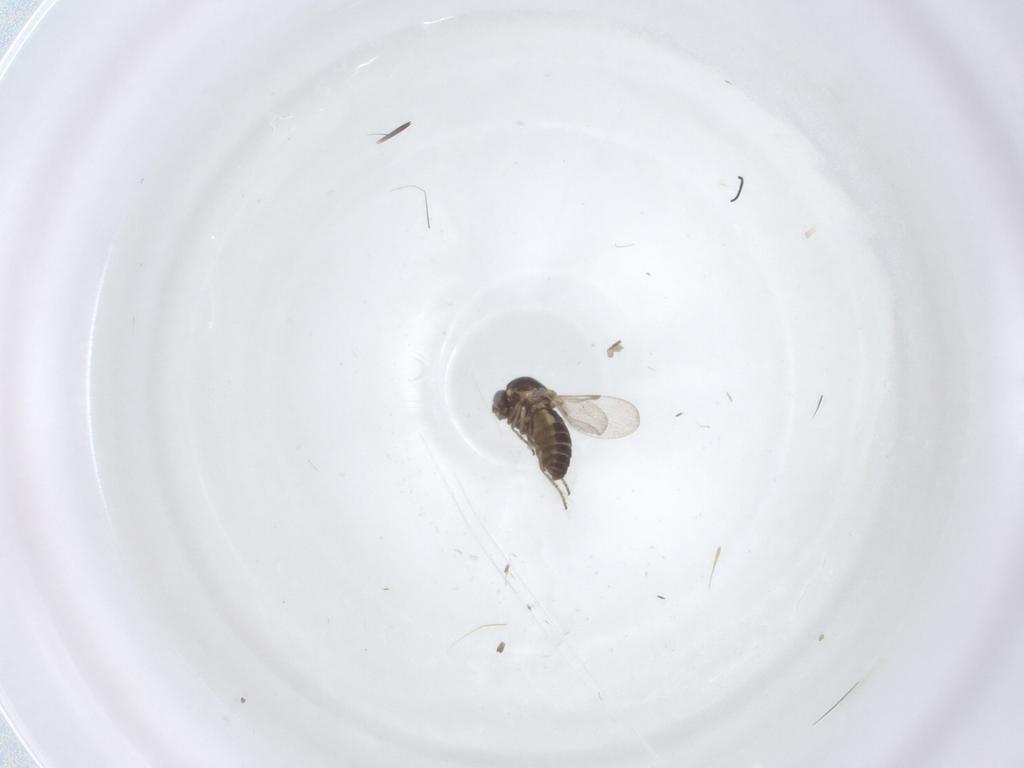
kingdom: Animalia
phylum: Arthropoda
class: Insecta
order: Diptera
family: Ceratopogonidae
